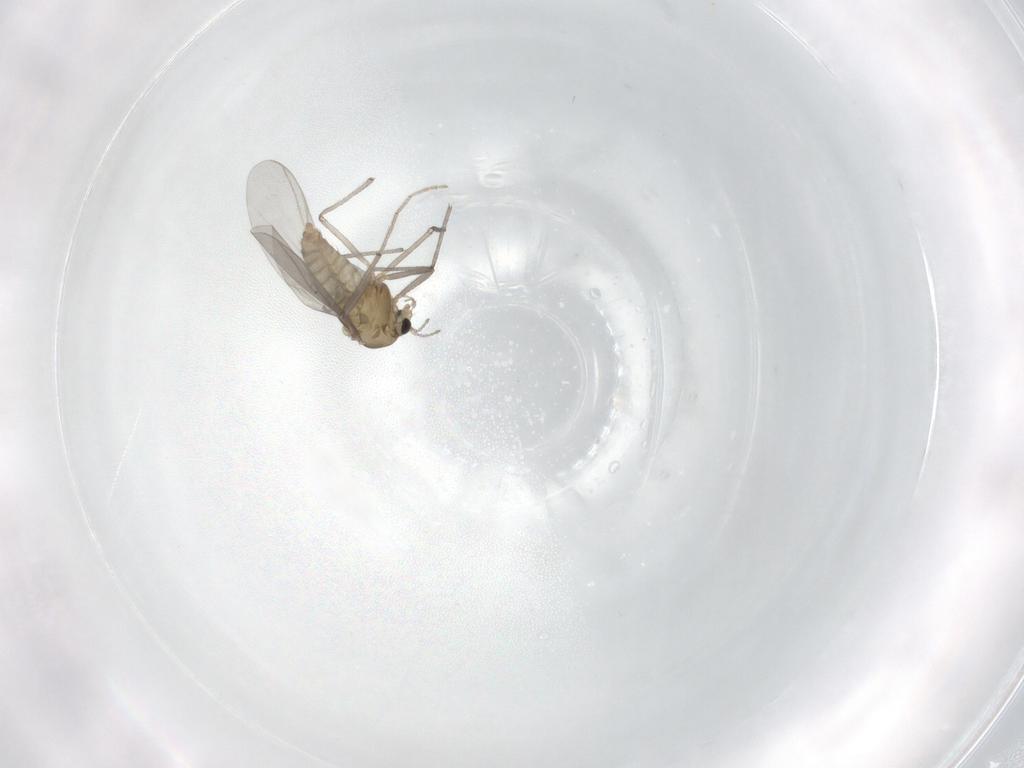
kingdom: Animalia
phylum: Arthropoda
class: Insecta
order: Diptera
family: Chironomidae
